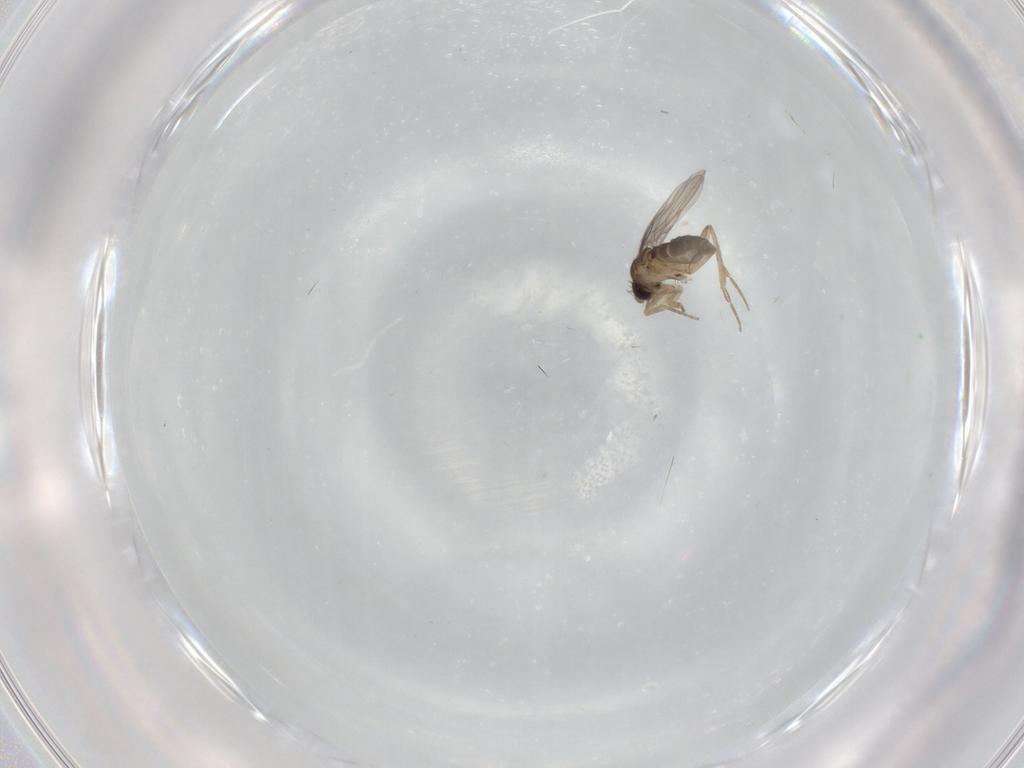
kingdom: Animalia
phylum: Arthropoda
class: Insecta
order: Diptera
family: Cecidomyiidae
